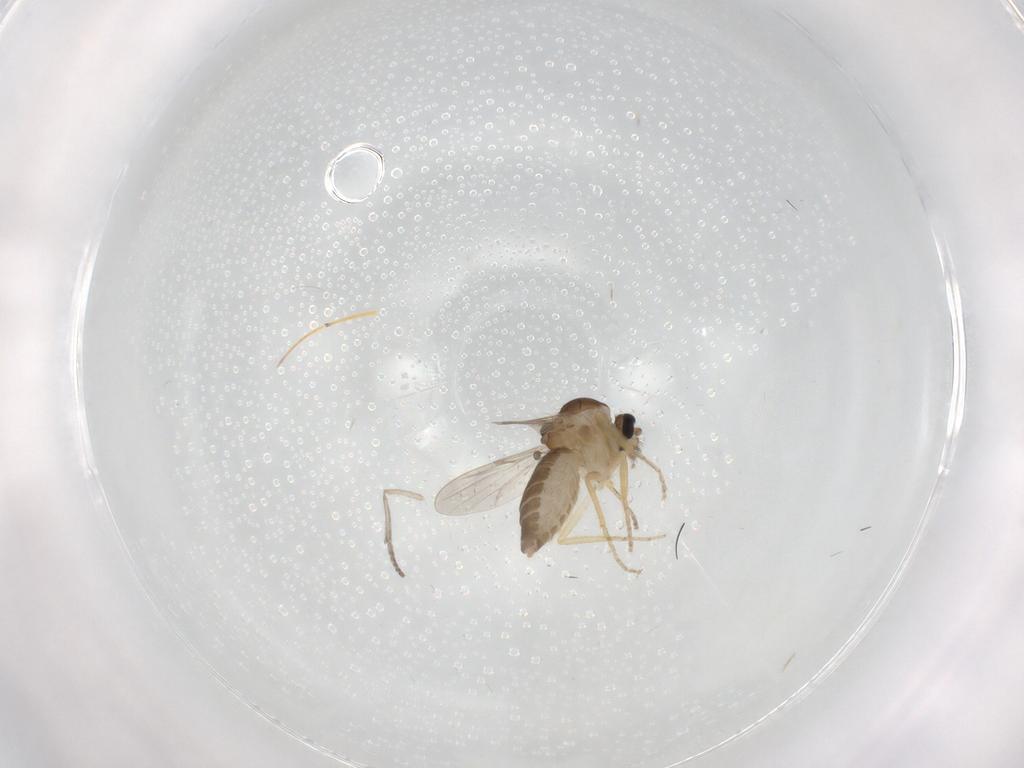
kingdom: Animalia
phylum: Arthropoda
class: Insecta
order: Diptera
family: Ceratopogonidae
